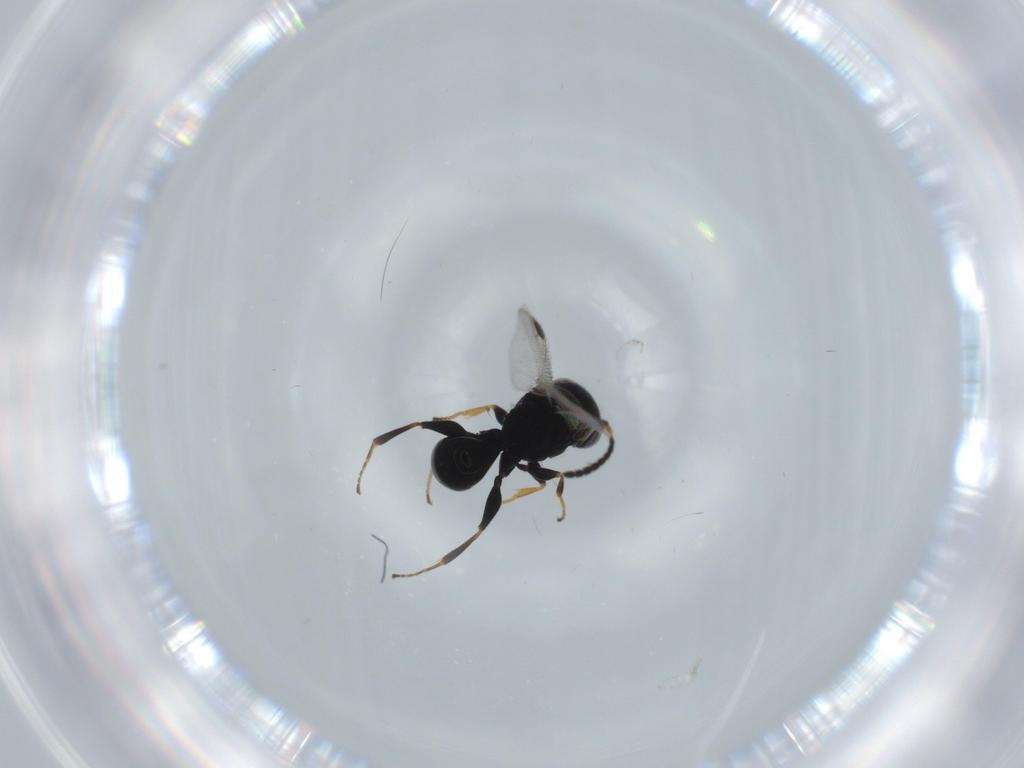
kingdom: Animalia
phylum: Arthropoda
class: Insecta
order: Hymenoptera
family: Dryinidae
